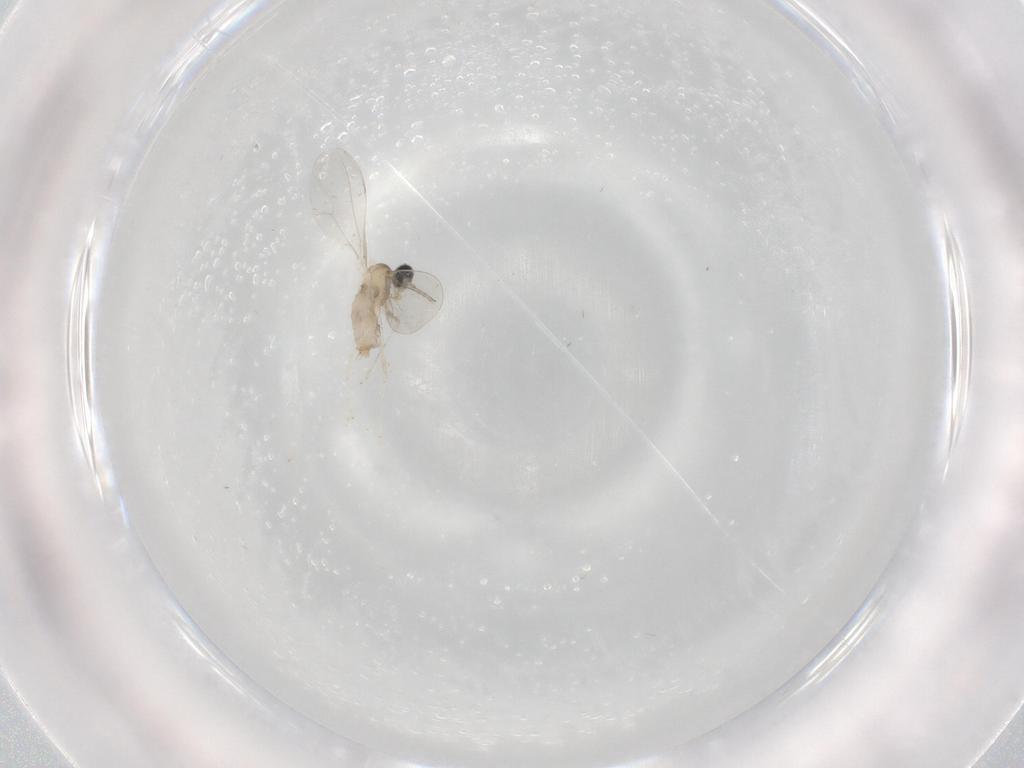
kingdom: Animalia
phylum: Arthropoda
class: Insecta
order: Diptera
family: Cecidomyiidae
